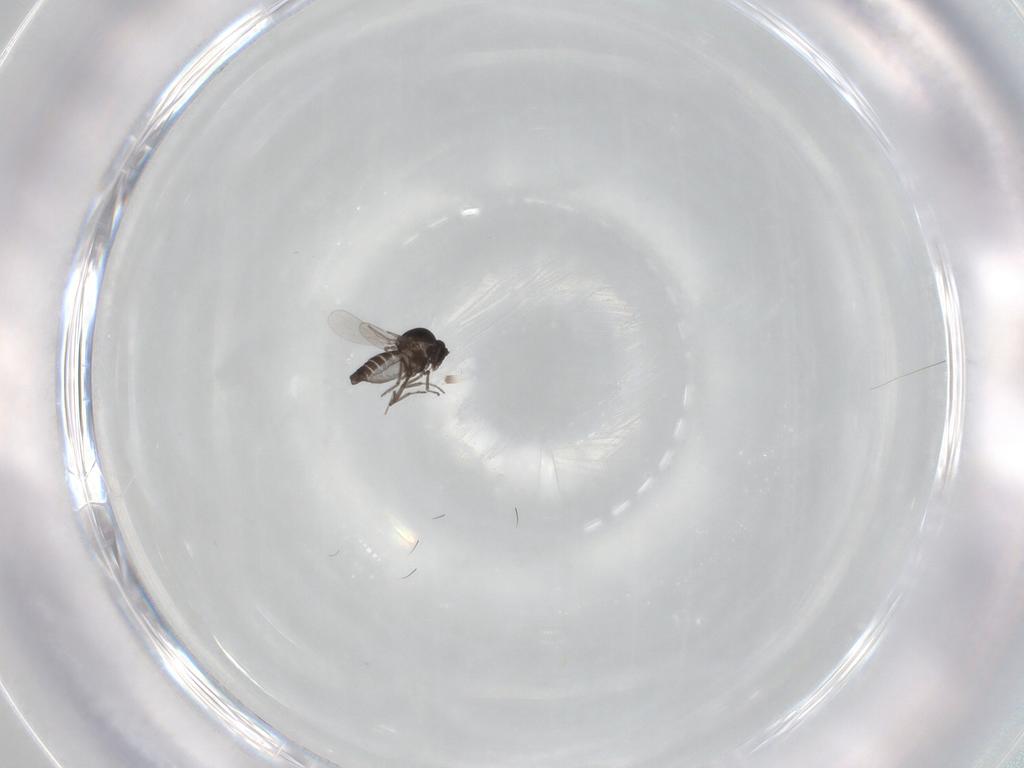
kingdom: Animalia
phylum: Arthropoda
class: Insecta
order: Diptera
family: Ceratopogonidae
